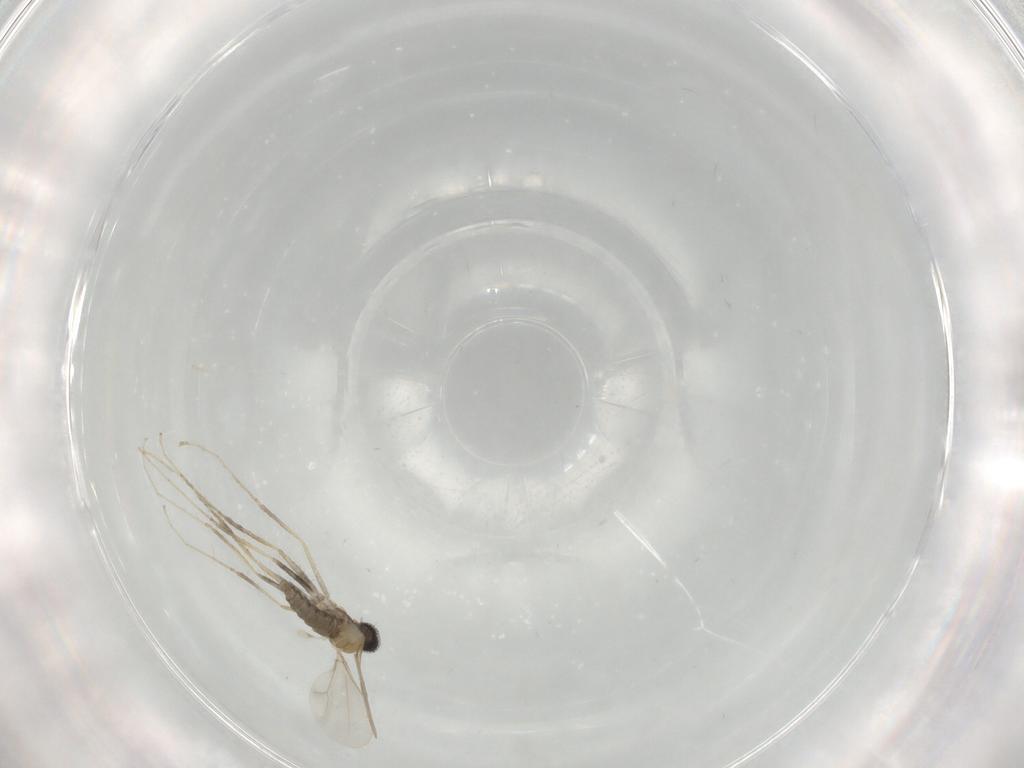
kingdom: Animalia
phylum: Arthropoda
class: Insecta
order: Diptera
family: Cecidomyiidae
